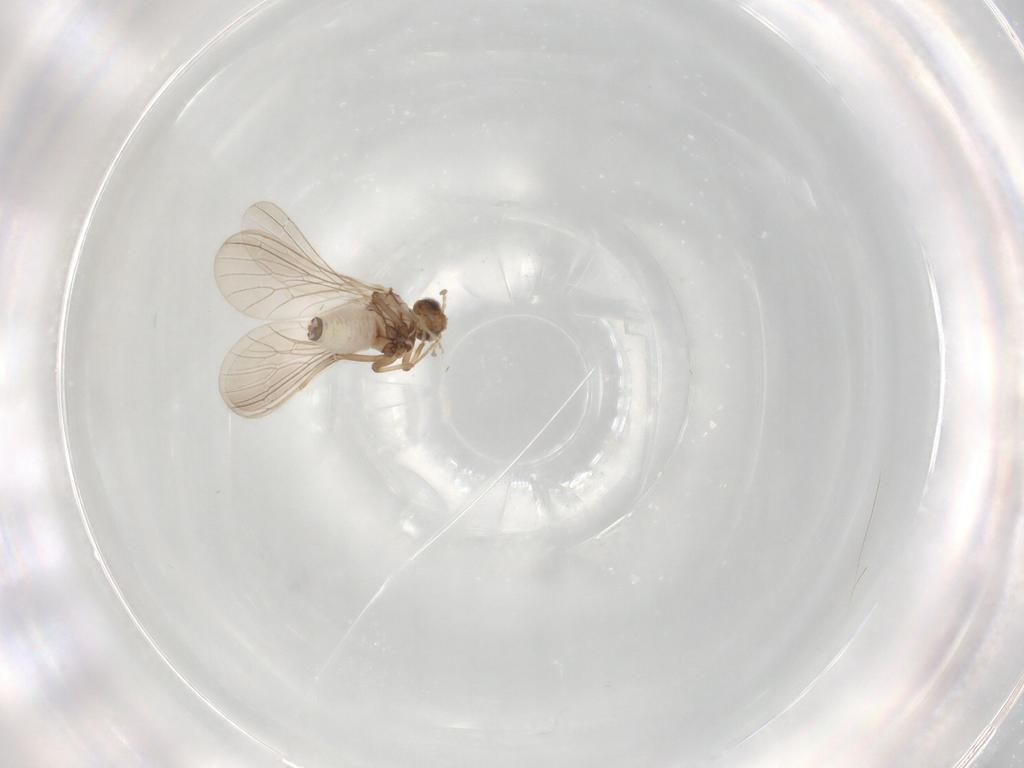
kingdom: Animalia
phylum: Arthropoda
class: Insecta
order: Neuroptera
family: Coniopterygidae
